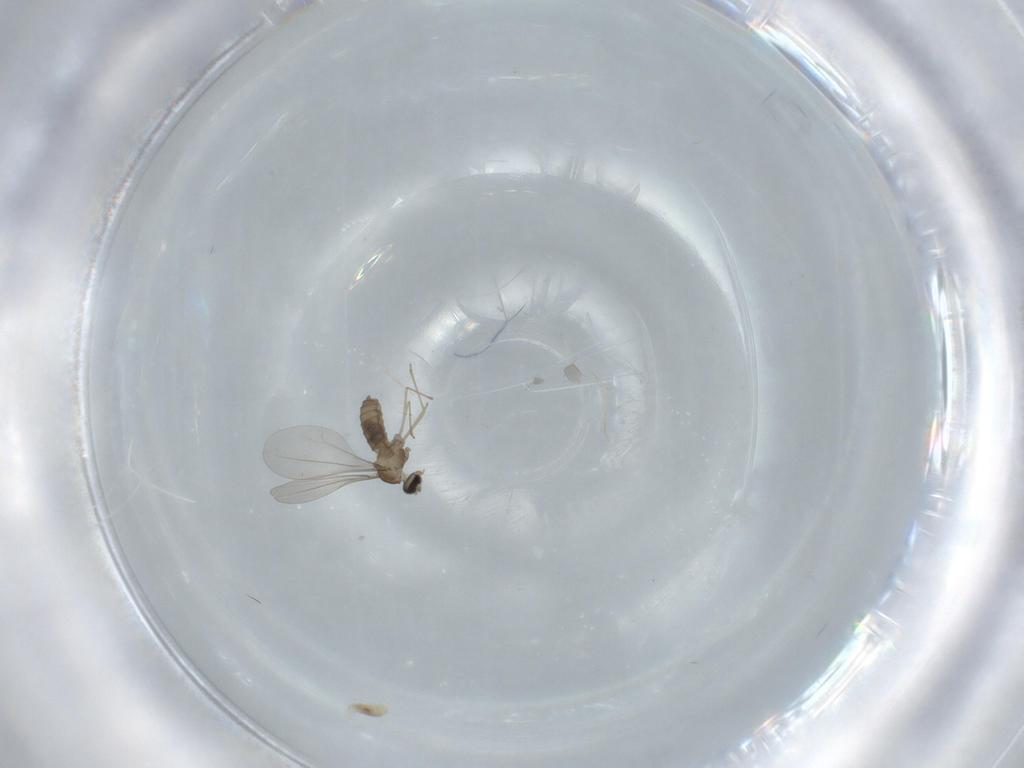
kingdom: Animalia
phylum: Arthropoda
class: Insecta
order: Diptera
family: Cecidomyiidae
